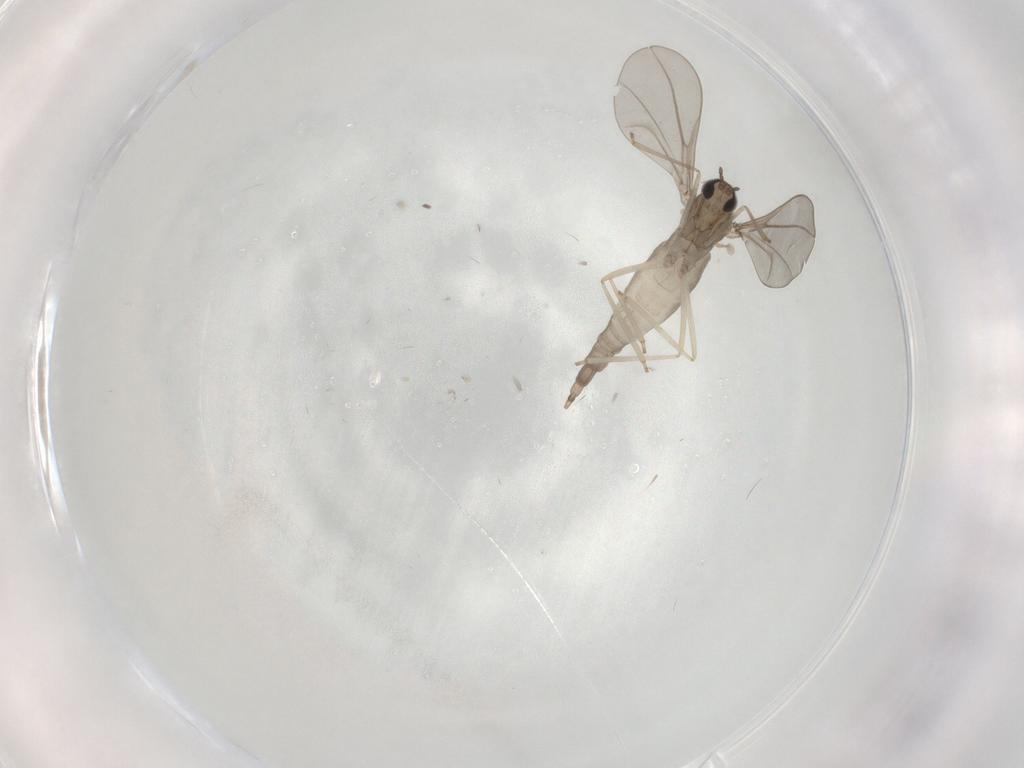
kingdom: Animalia
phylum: Arthropoda
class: Insecta
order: Diptera
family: Cecidomyiidae
